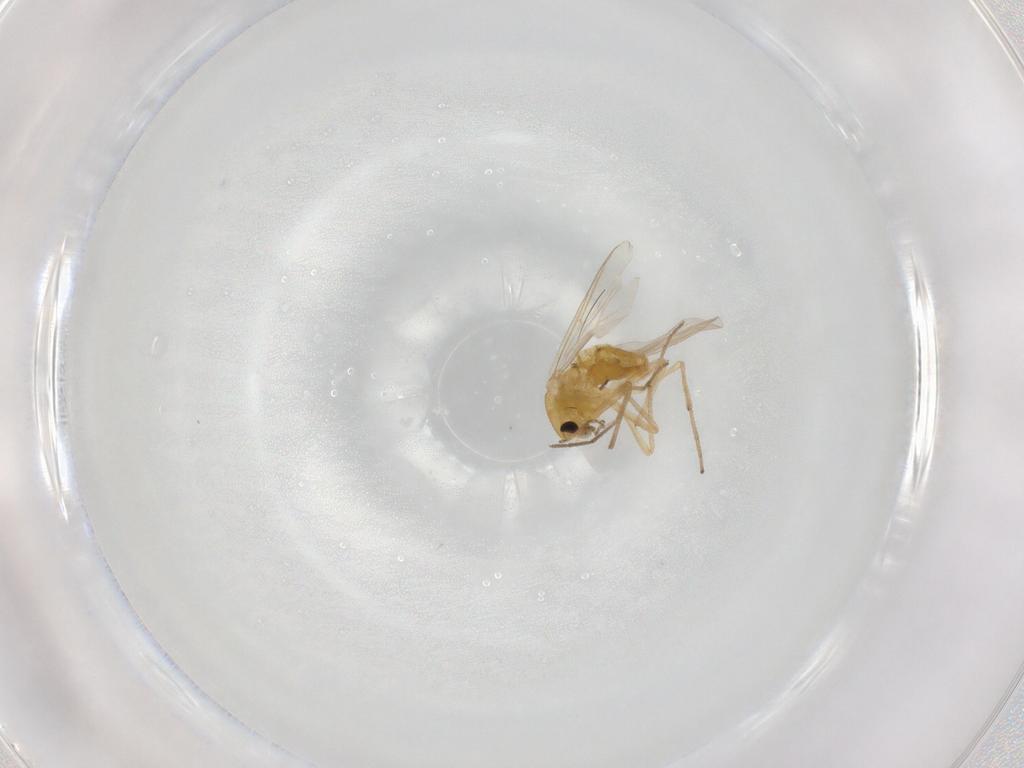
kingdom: Animalia
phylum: Arthropoda
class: Insecta
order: Diptera
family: Chironomidae
